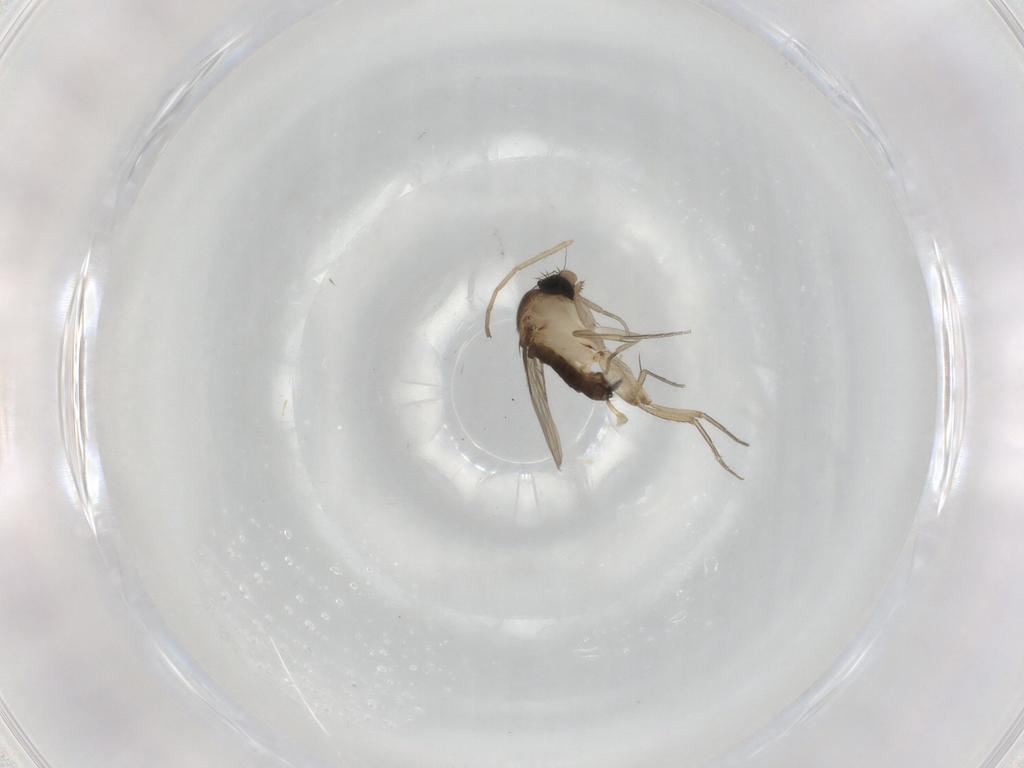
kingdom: Animalia
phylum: Arthropoda
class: Insecta
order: Diptera
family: Phoridae
